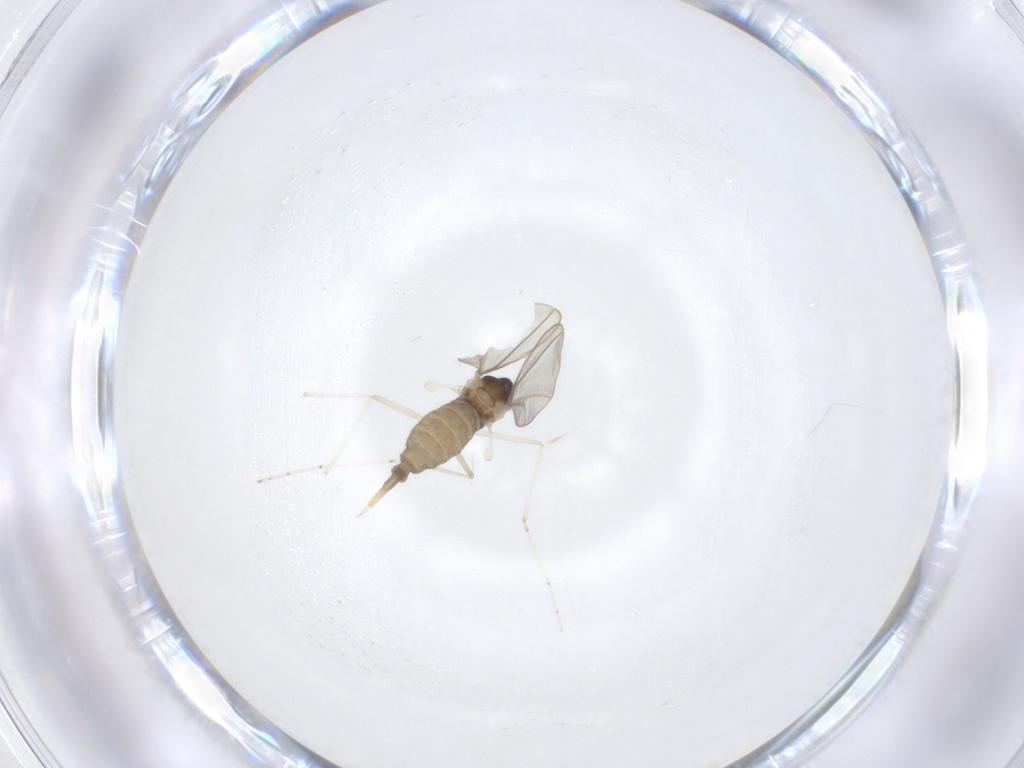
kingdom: Animalia
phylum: Arthropoda
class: Insecta
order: Diptera
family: Cecidomyiidae
